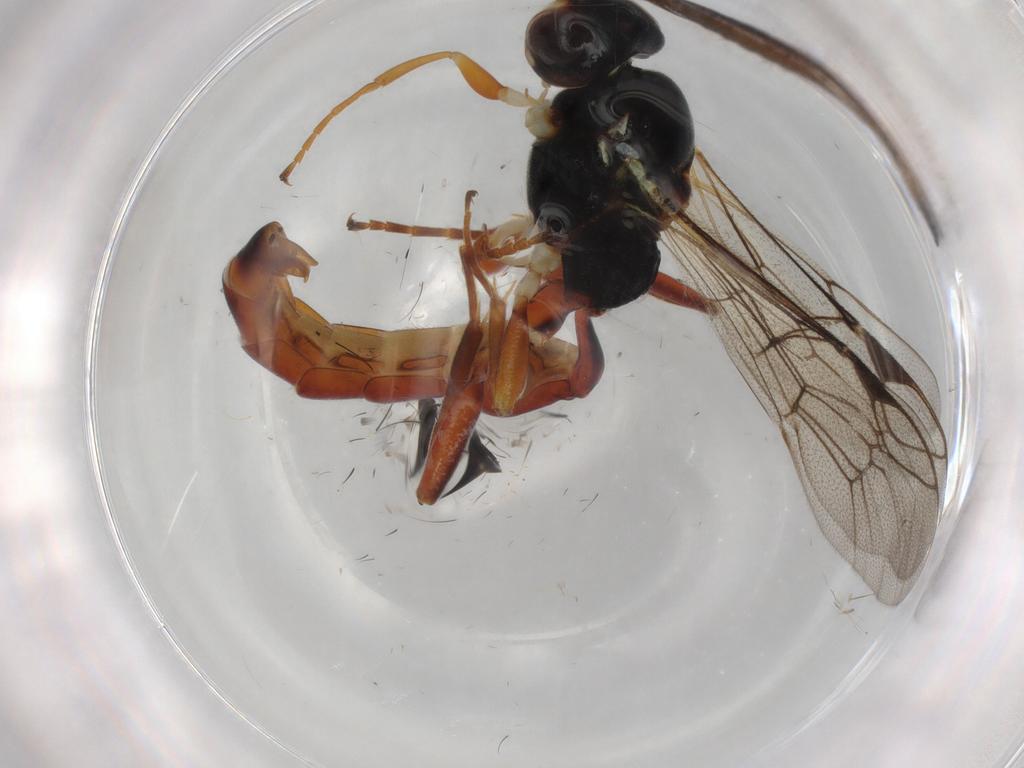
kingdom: Animalia
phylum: Arthropoda
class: Insecta
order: Hymenoptera
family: Ichneumonidae
